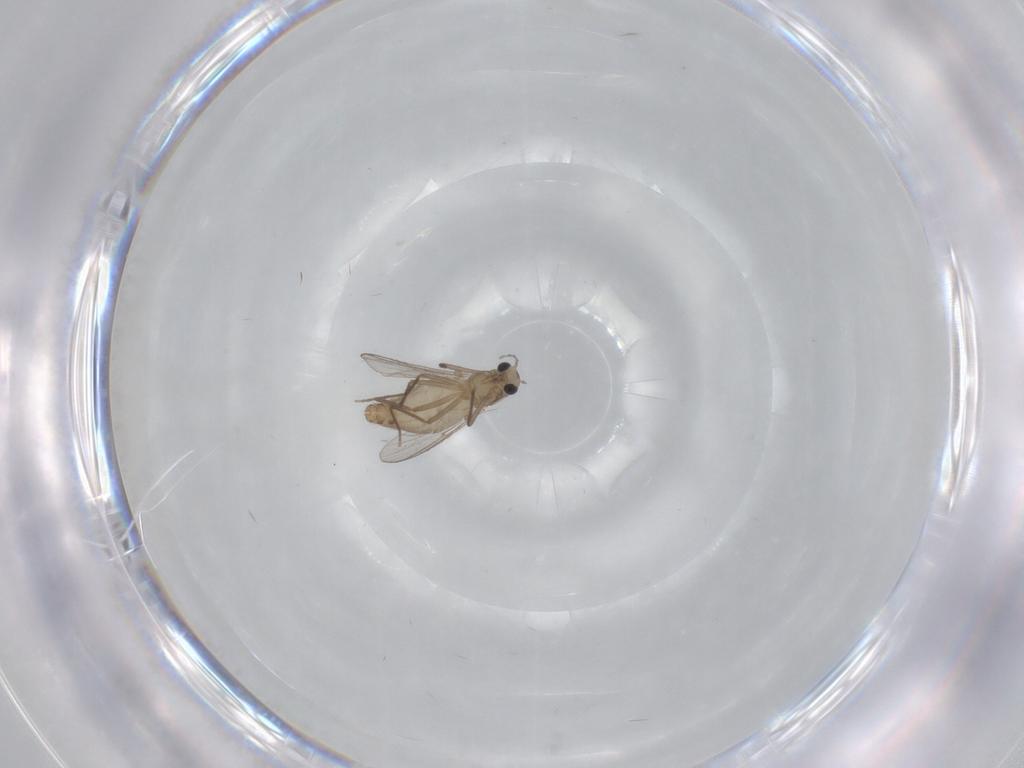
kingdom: Animalia
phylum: Arthropoda
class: Insecta
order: Diptera
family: Chironomidae
